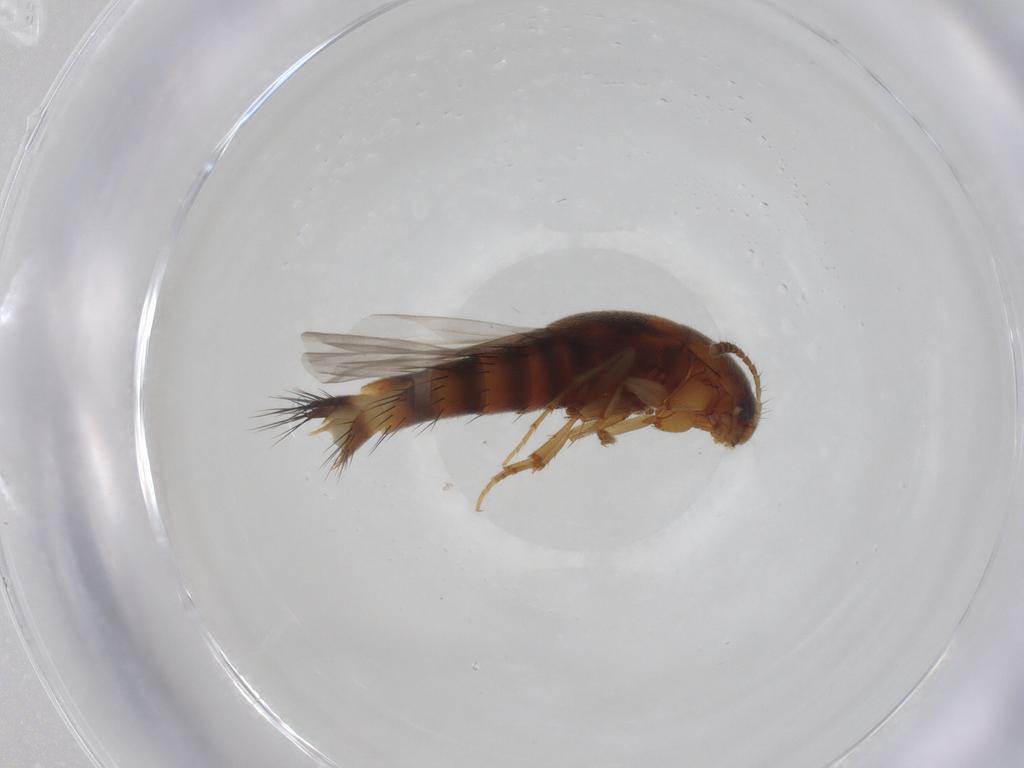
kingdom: Animalia
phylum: Arthropoda
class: Insecta
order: Coleoptera
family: Staphylinidae
